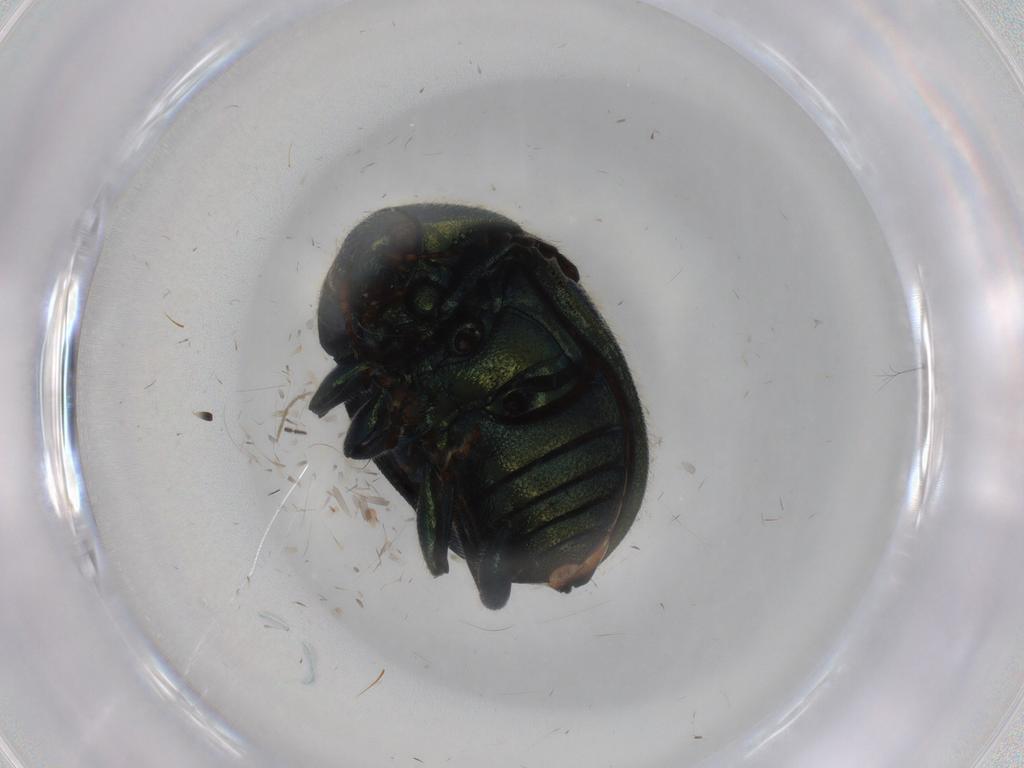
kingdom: Animalia
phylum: Arthropoda
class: Insecta
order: Coleoptera
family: Chrysomelidae
